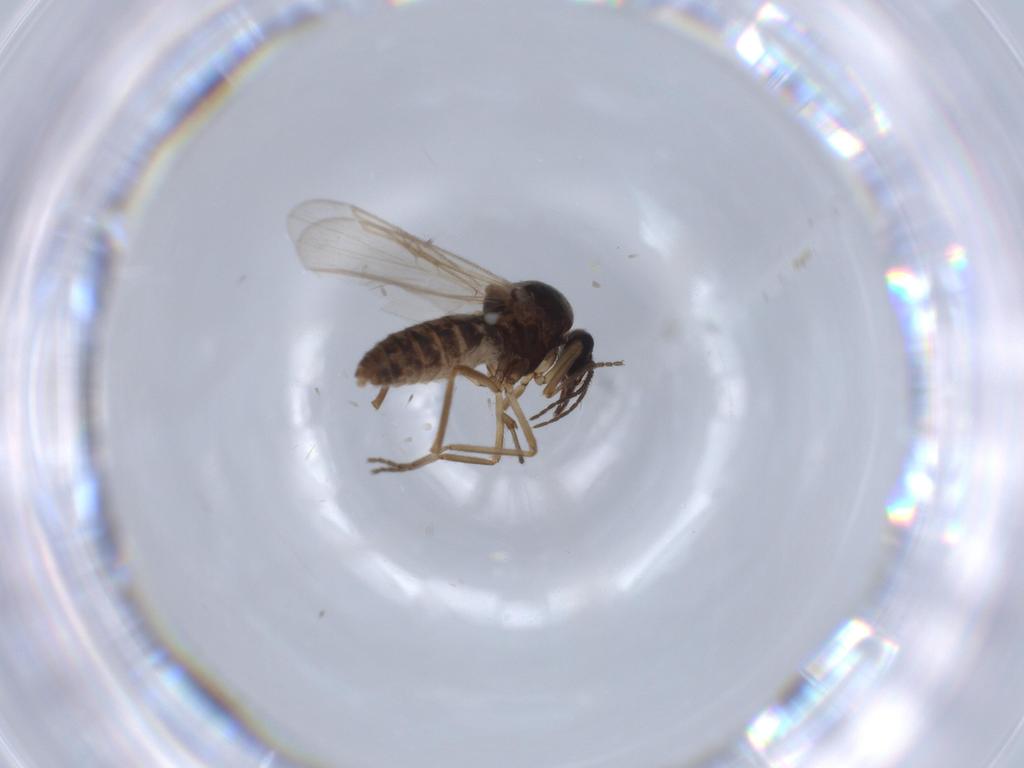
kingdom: Animalia
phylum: Arthropoda
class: Insecta
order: Diptera
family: Ceratopogonidae
